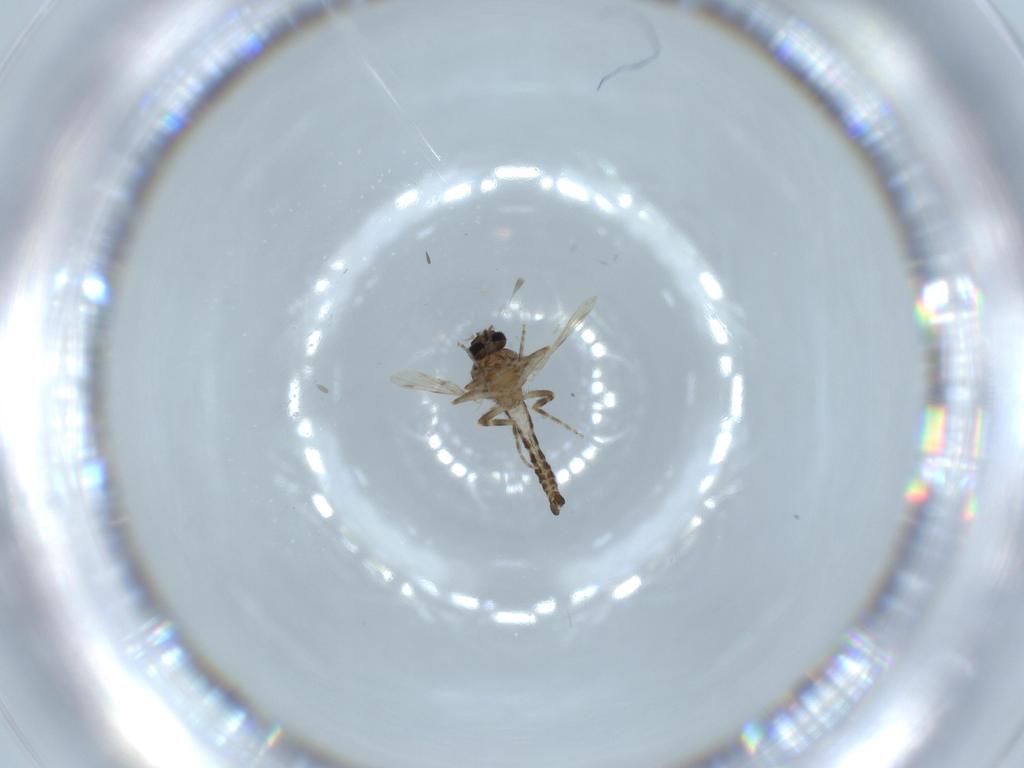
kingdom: Animalia
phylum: Arthropoda
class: Insecta
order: Diptera
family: Ceratopogonidae
